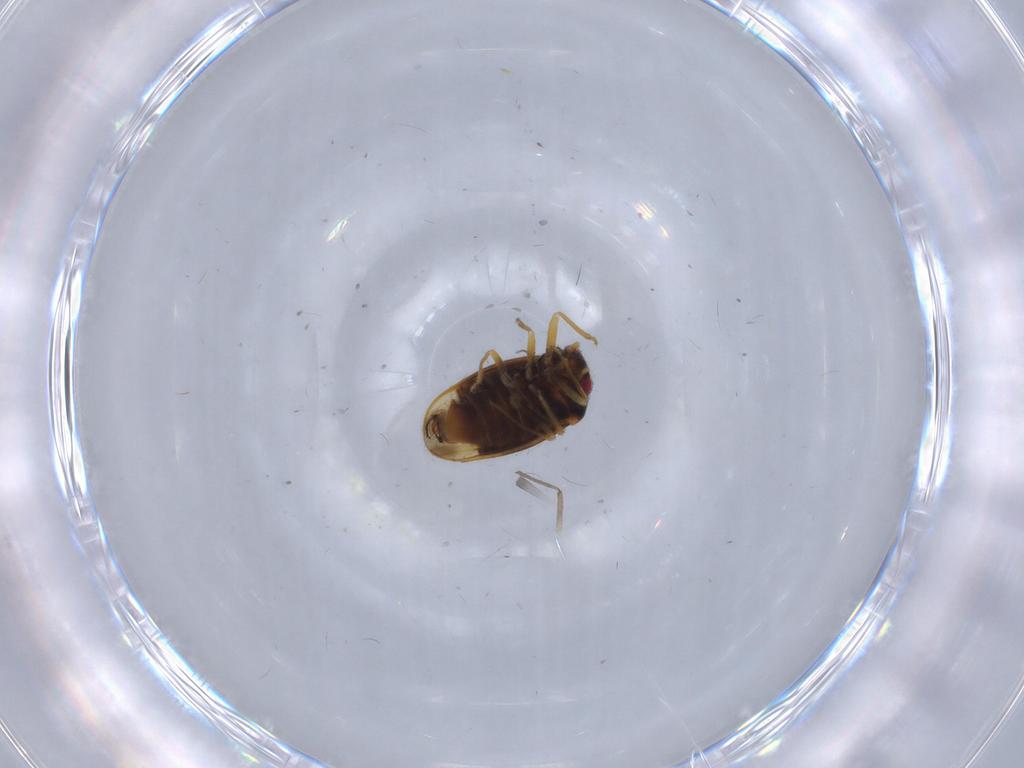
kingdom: Animalia
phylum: Arthropoda
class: Insecta
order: Hemiptera
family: Schizopteridae
